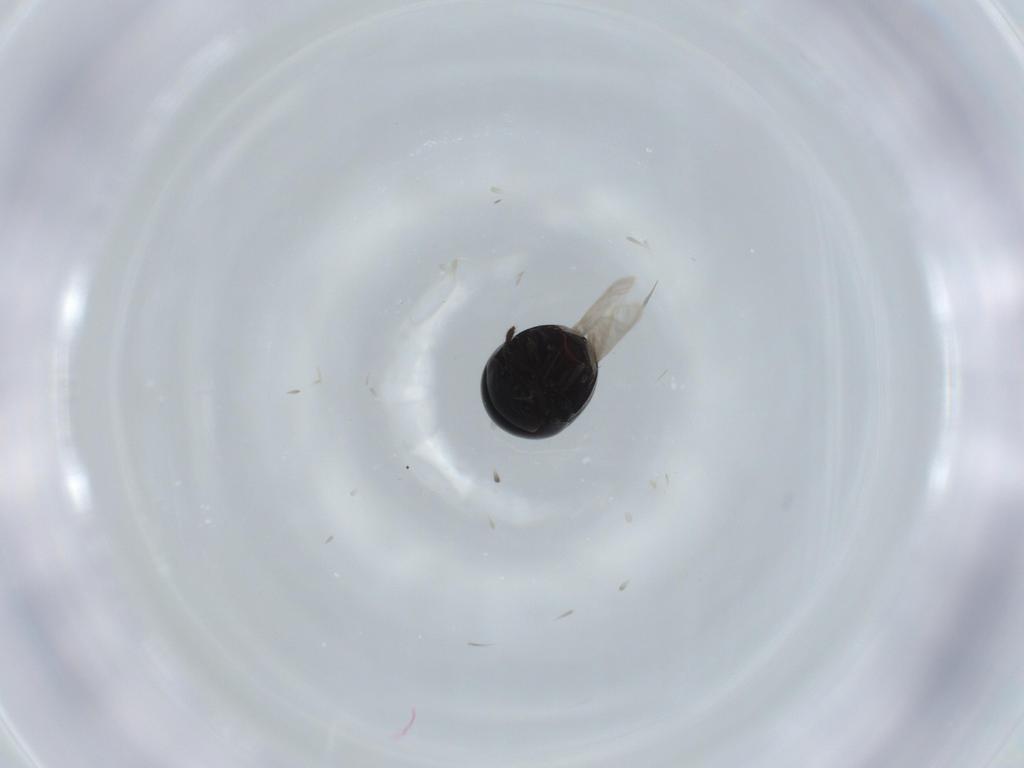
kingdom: Animalia
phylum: Arthropoda
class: Insecta
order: Coleoptera
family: Cybocephalidae
